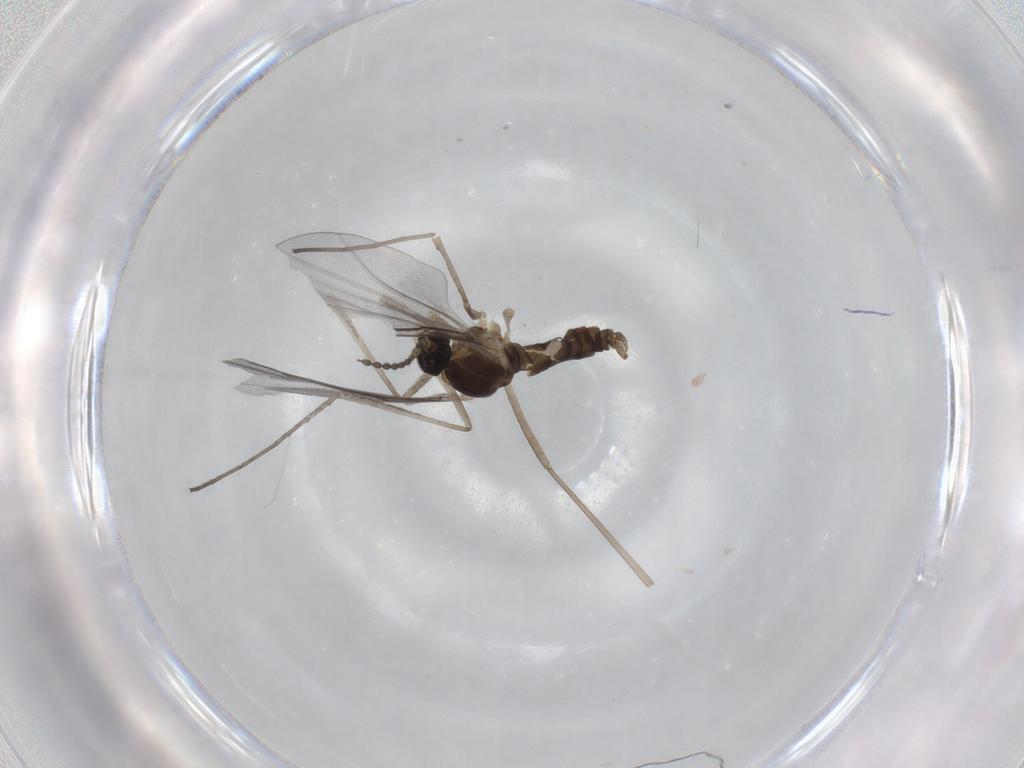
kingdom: Animalia
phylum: Arthropoda
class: Insecta
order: Diptera
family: Cecidomyiidae
